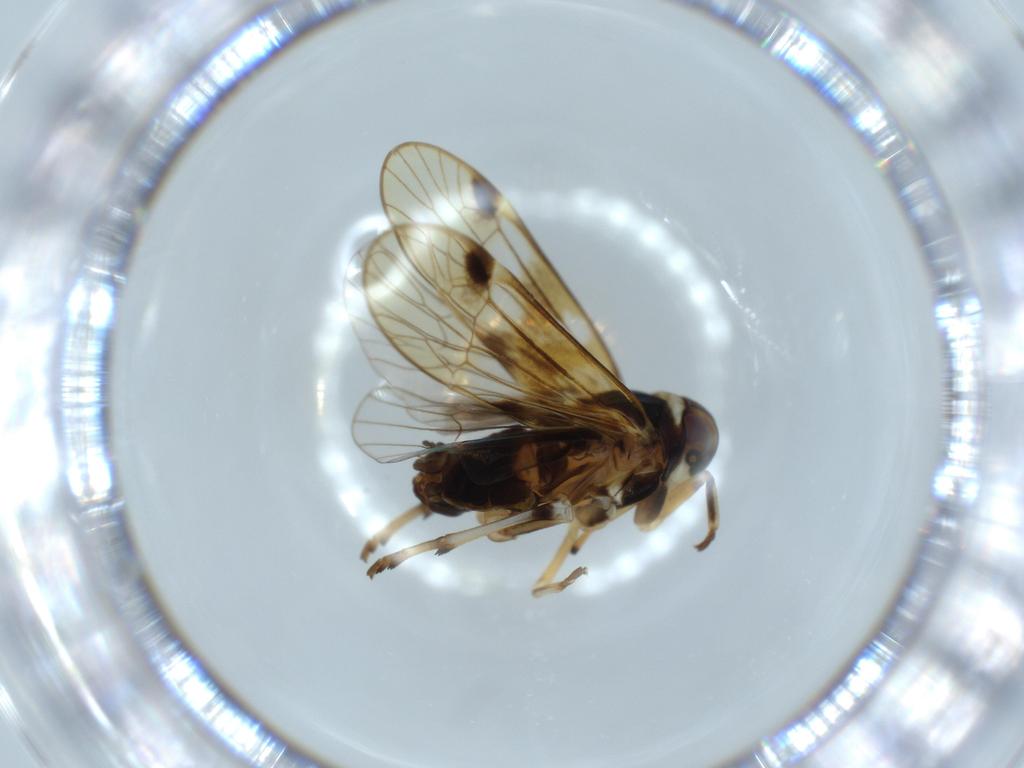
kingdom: Animalia
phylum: Arthropoda
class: Insecta
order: Hemiptera
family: Kinnaridae
